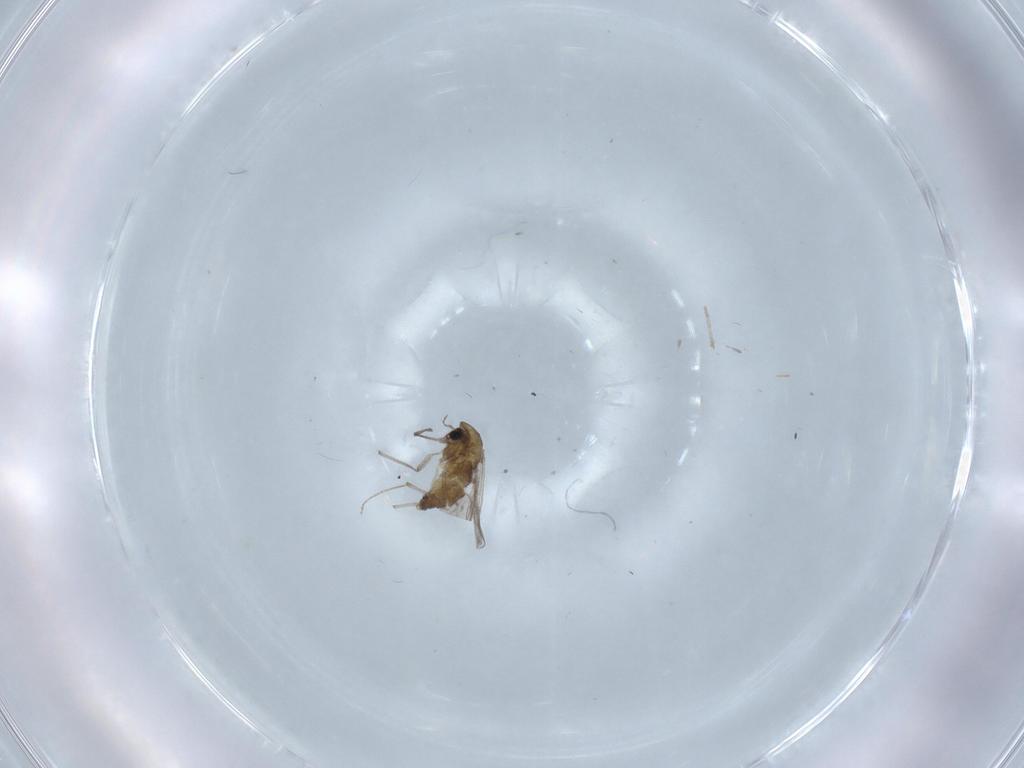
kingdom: Animalia
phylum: Arthropoda
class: Insecta
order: Diptera
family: Chironomidae
